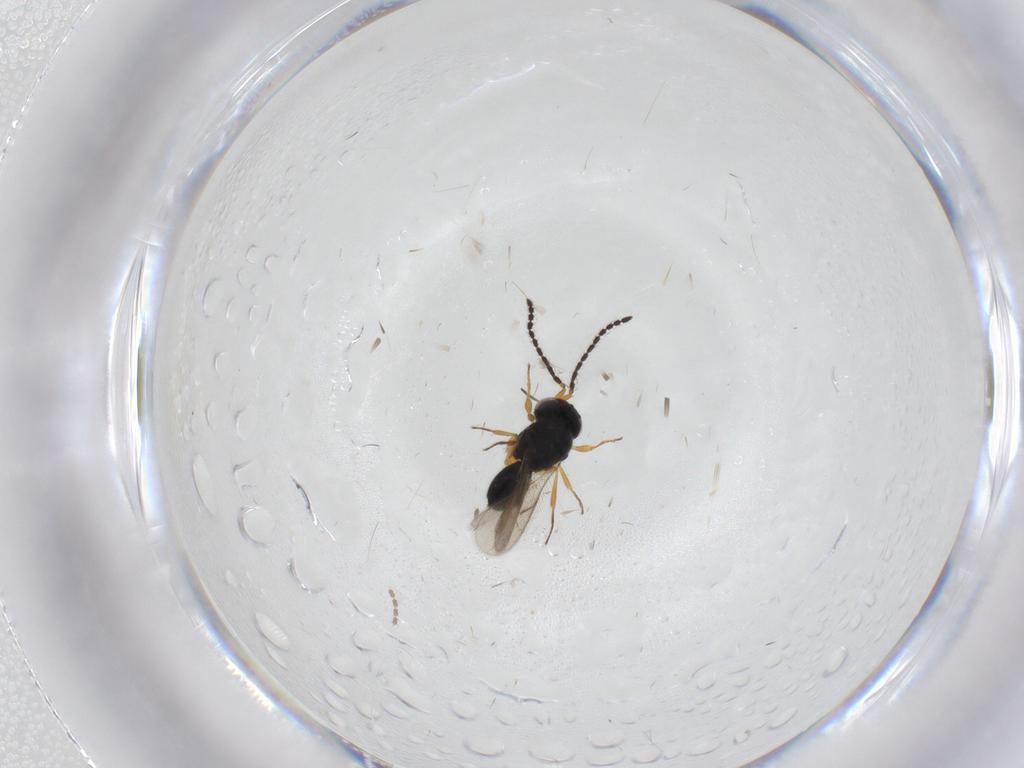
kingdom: Animalia
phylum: Arthropoda
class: Insecta
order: Hymenoptera
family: Scelionidae
